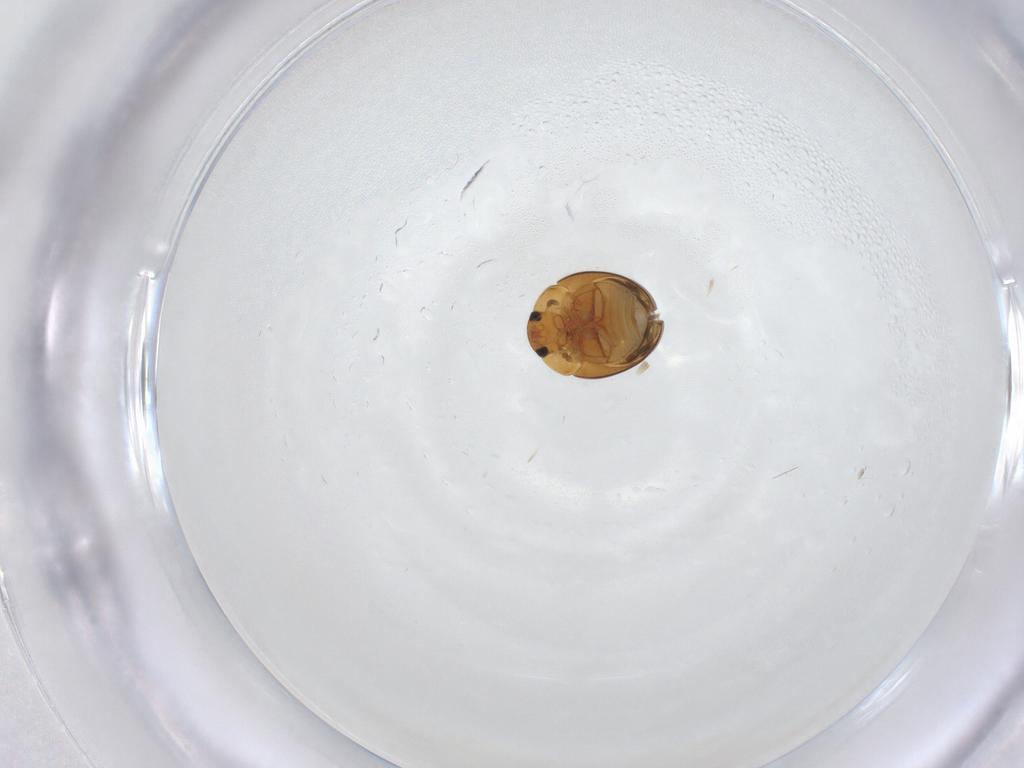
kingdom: Animalia
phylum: Arthropoda
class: Insecta
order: Coleoptera
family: Phalacridae
